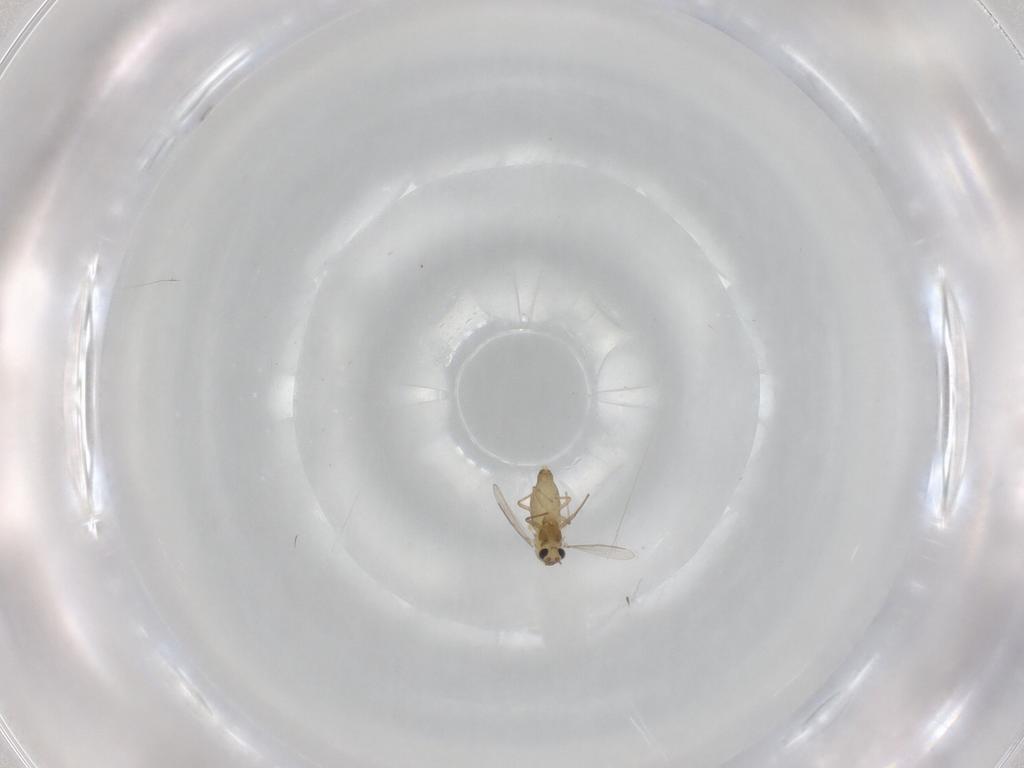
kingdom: Animalia
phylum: Arthropoda
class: Insecta
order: Diptera
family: Chironomidae
